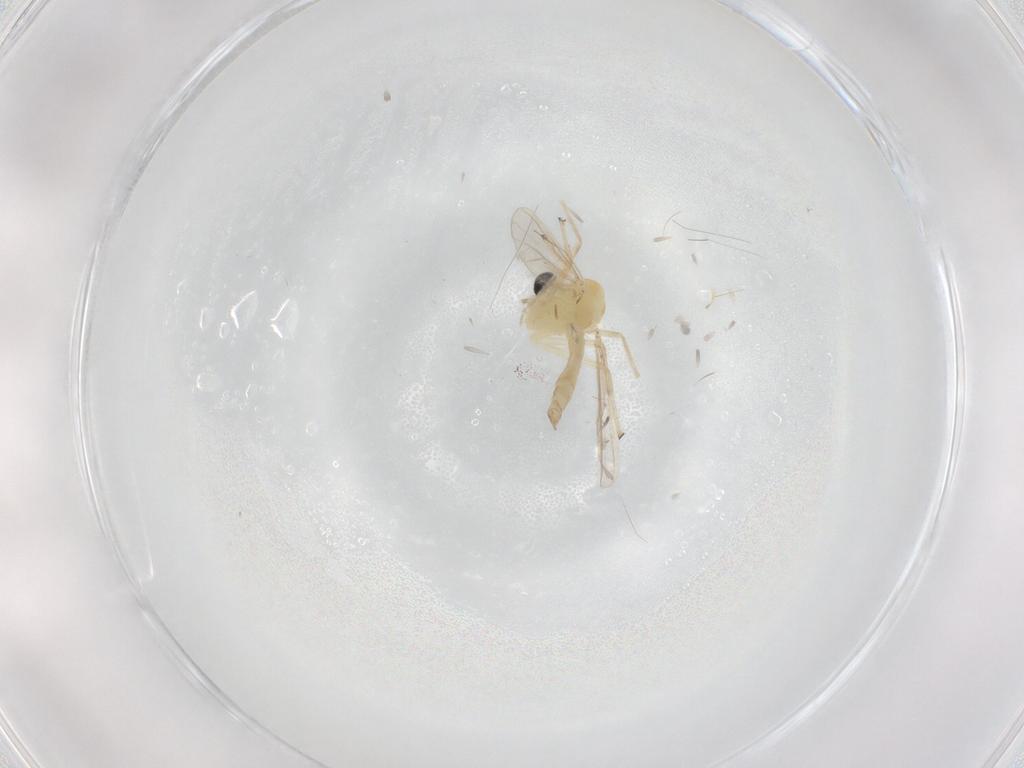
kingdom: Animalia
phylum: Arthropoda
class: Insecta
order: Diptera
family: Chironomidae
